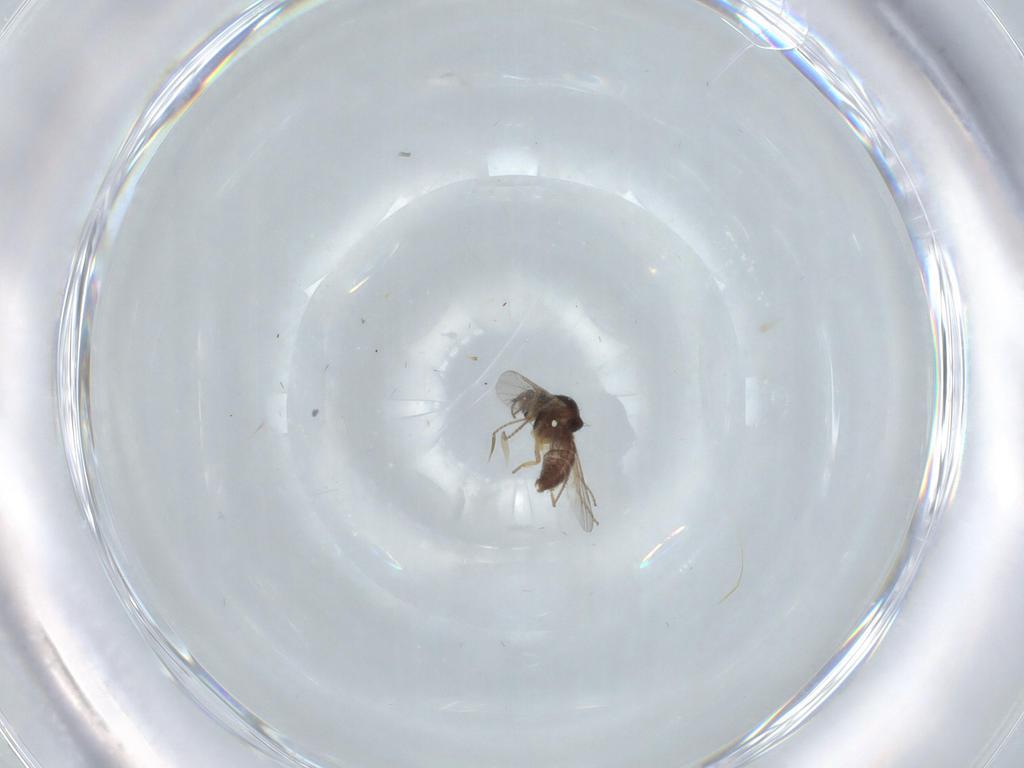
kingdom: Animalia
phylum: Arthropoda
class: Insecta
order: Diptera
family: Ceratopogonidae
